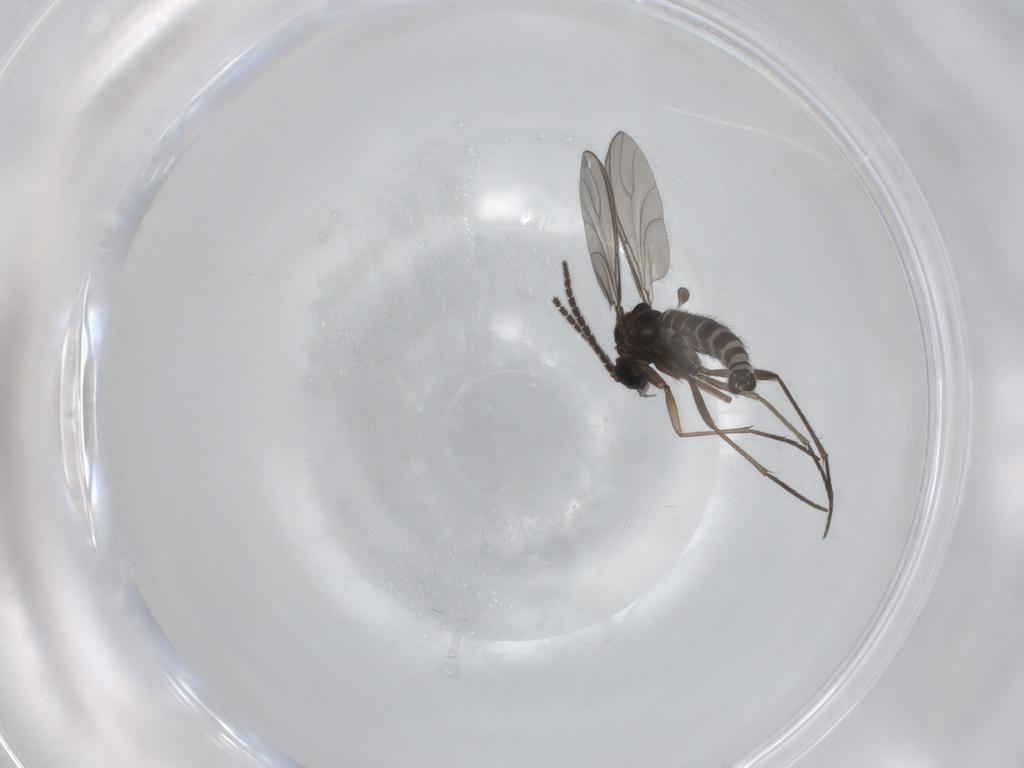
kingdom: Animalia
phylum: Arthropoda
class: Insecta
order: Diptera
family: Sciaridae
